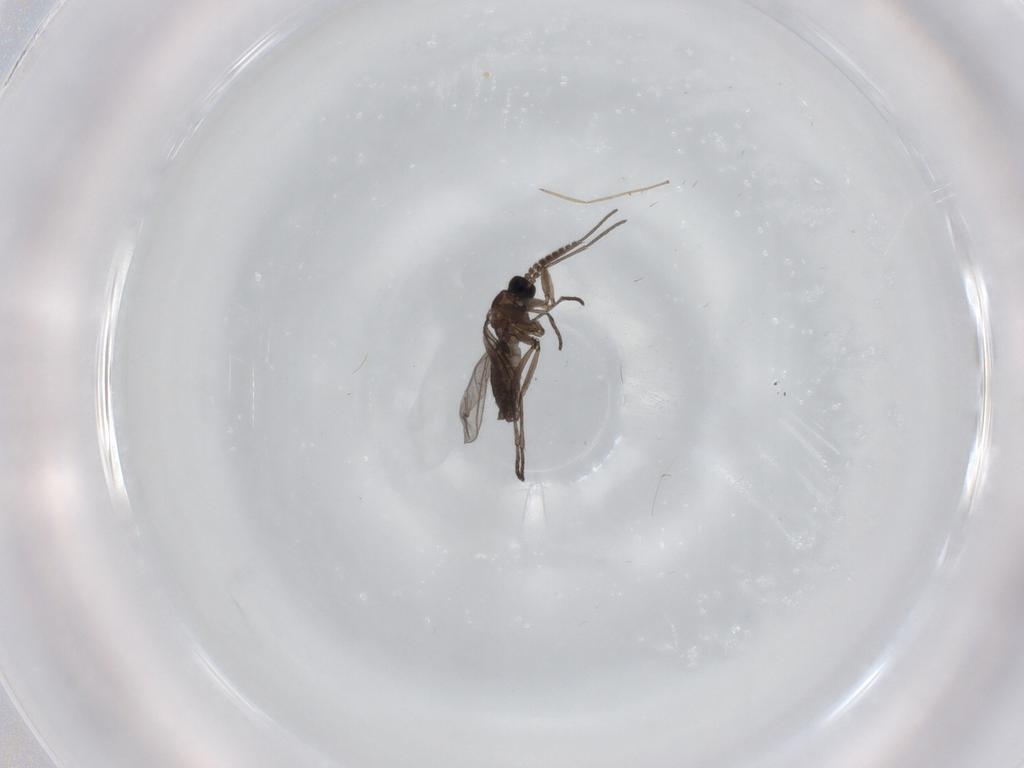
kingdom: Animalia
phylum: Arthropoda
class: Insecta
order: Diptera
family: Sciaridae
